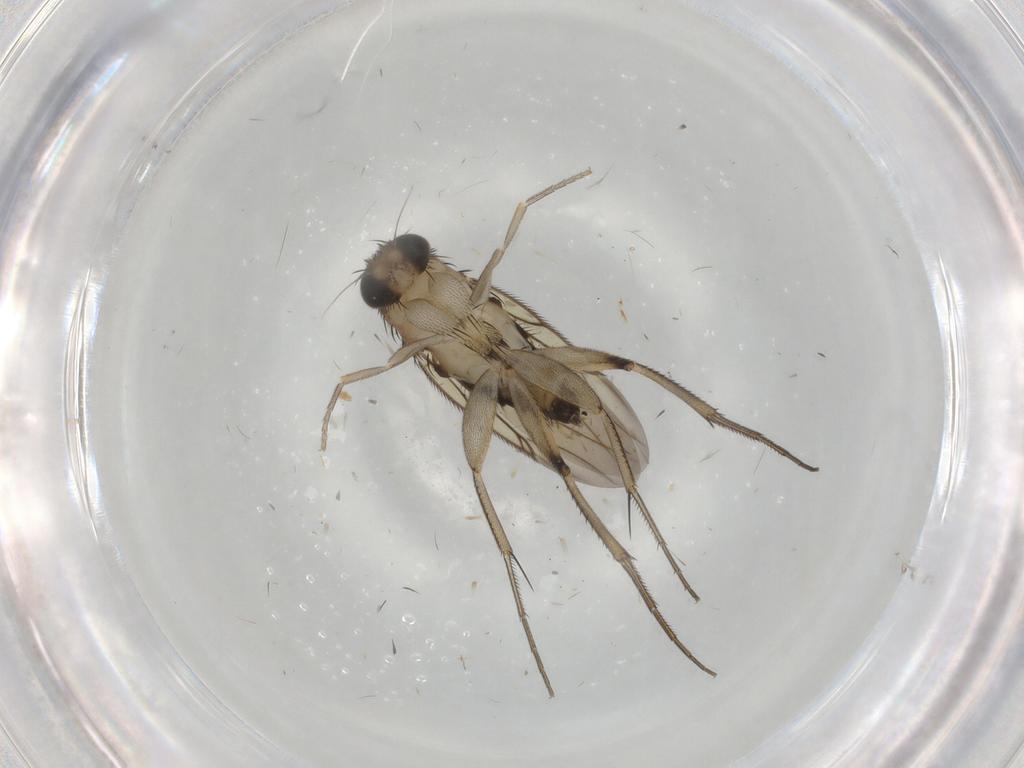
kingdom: Animalia
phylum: Arthropoda
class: Insecta
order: Diptera
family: Phoridae
